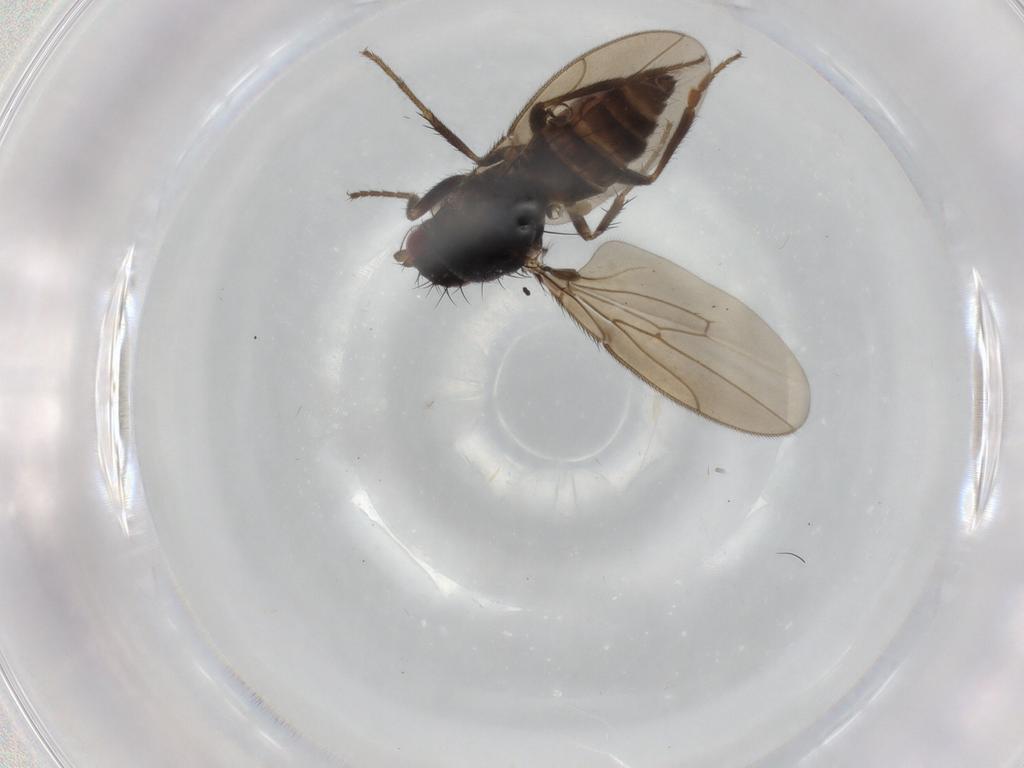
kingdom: Animalia
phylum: Arthropoda
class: Insecta
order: Diptera
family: Sphaeroceridae
